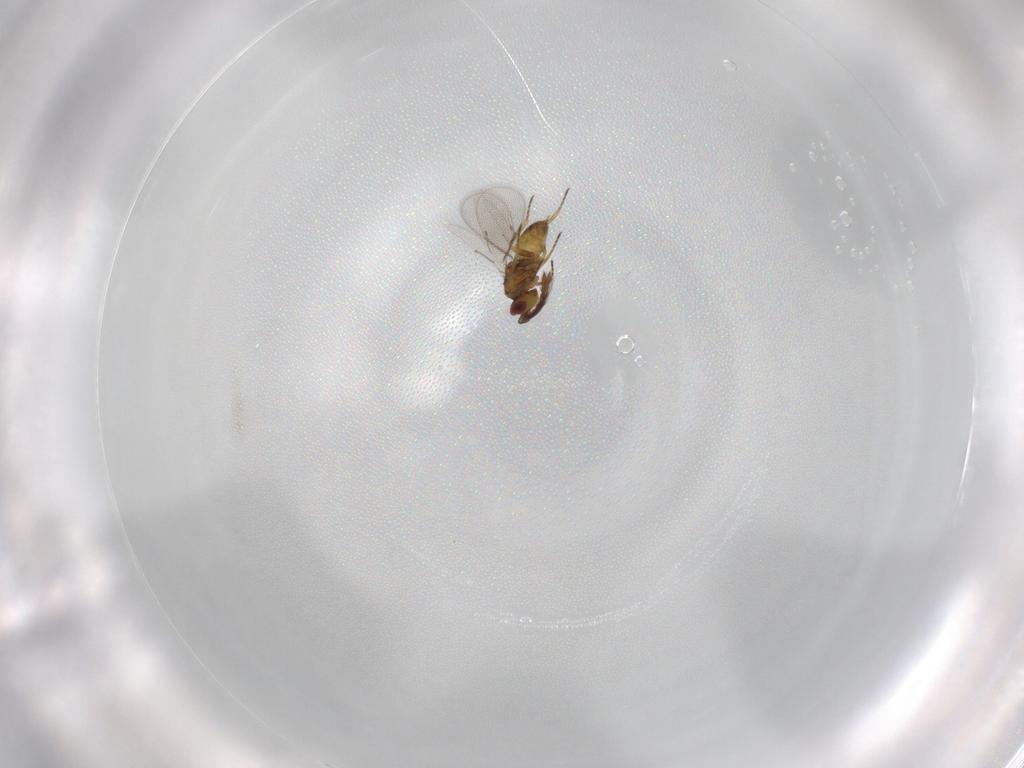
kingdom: Animalia
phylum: Arthropoda
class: Insecta
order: Hymenoptera
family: Eulophidae
